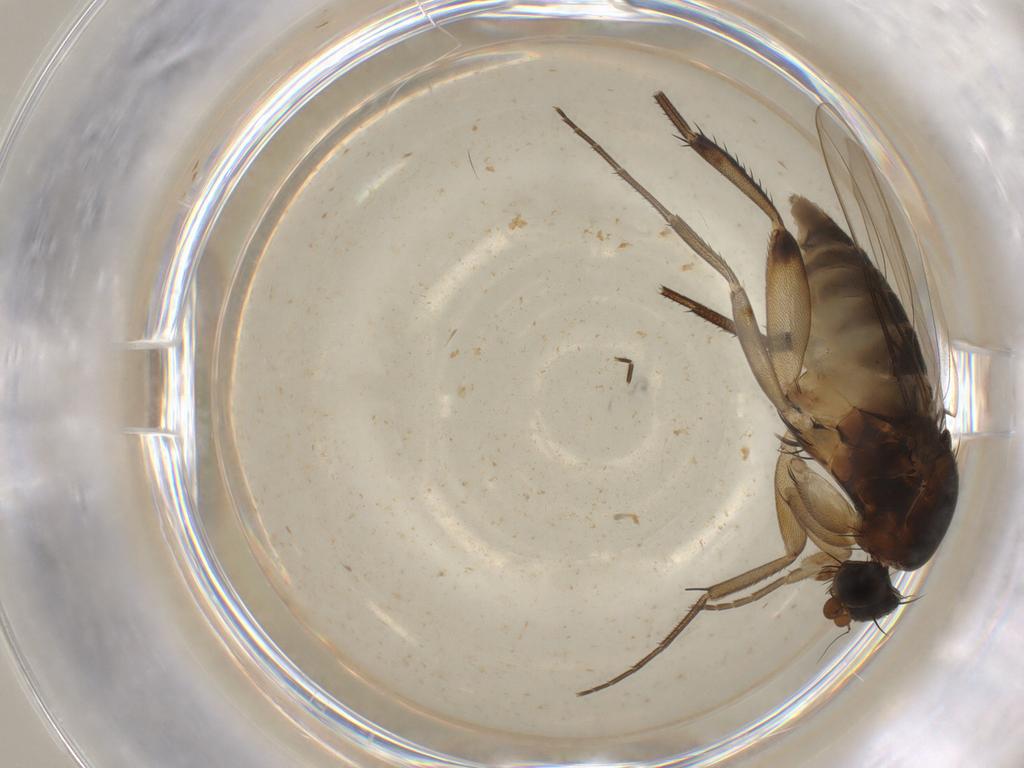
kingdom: Animalia
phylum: Arthropoda
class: Insecta
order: Diptera
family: Phoridae
